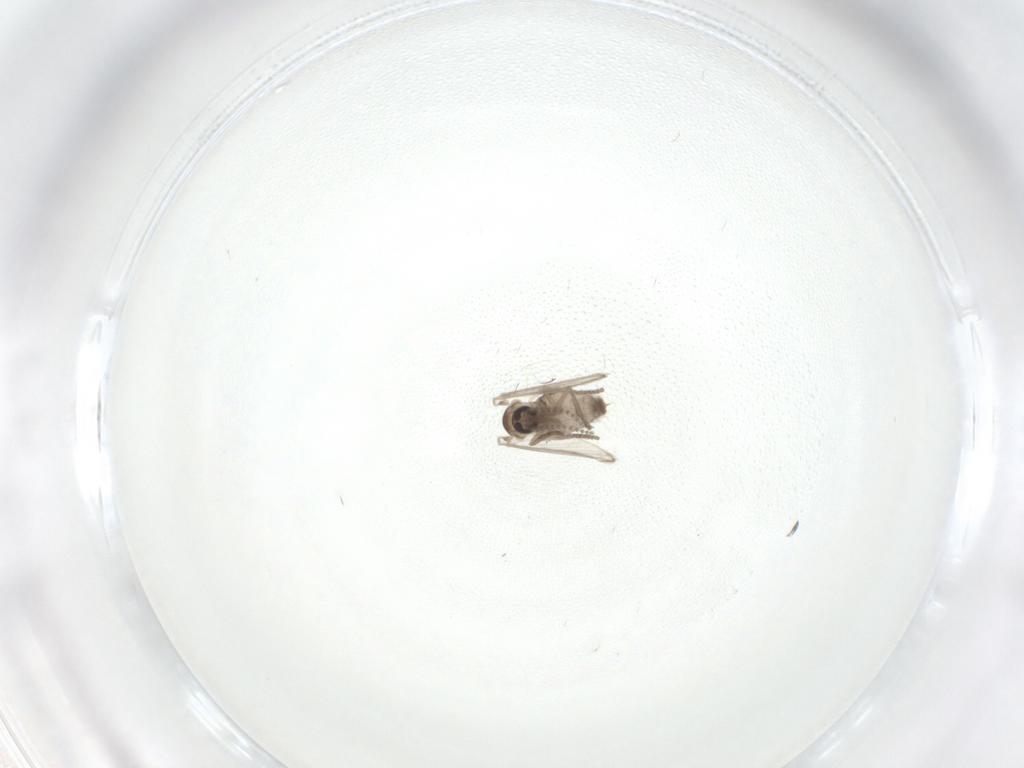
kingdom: Animalia
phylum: Arthropoda
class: Insecta
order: Diptera
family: Psychodidae
